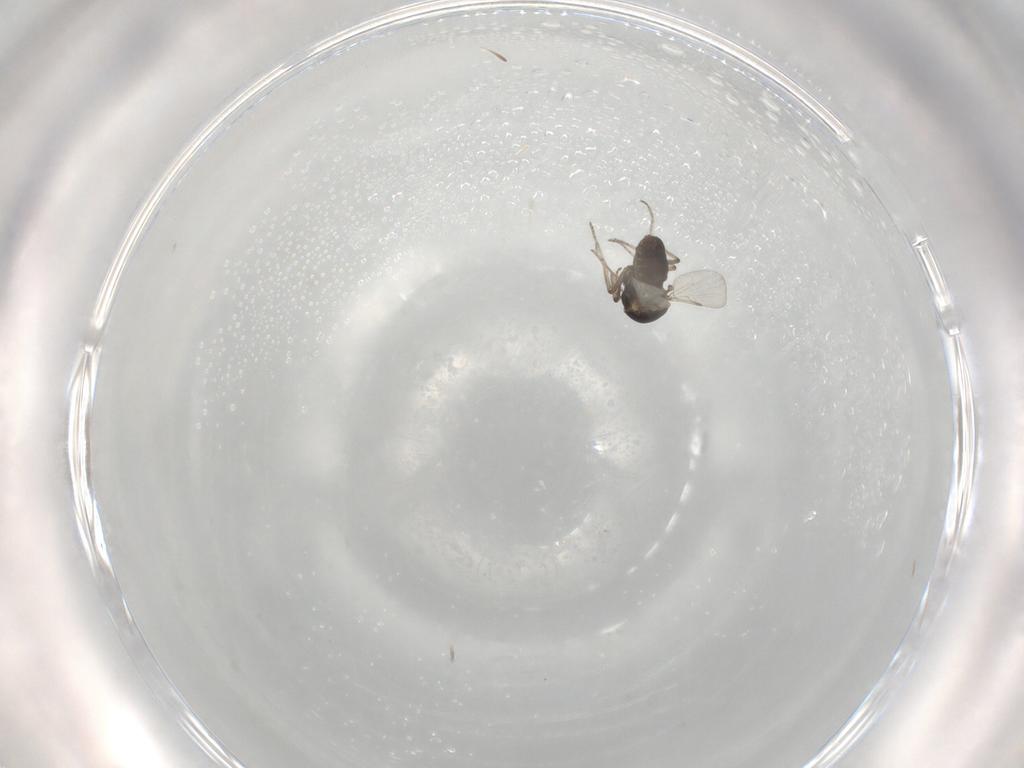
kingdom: Animalia
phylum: Arthropoda
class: Insecta
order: Diptera
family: Ceratopogonidae
